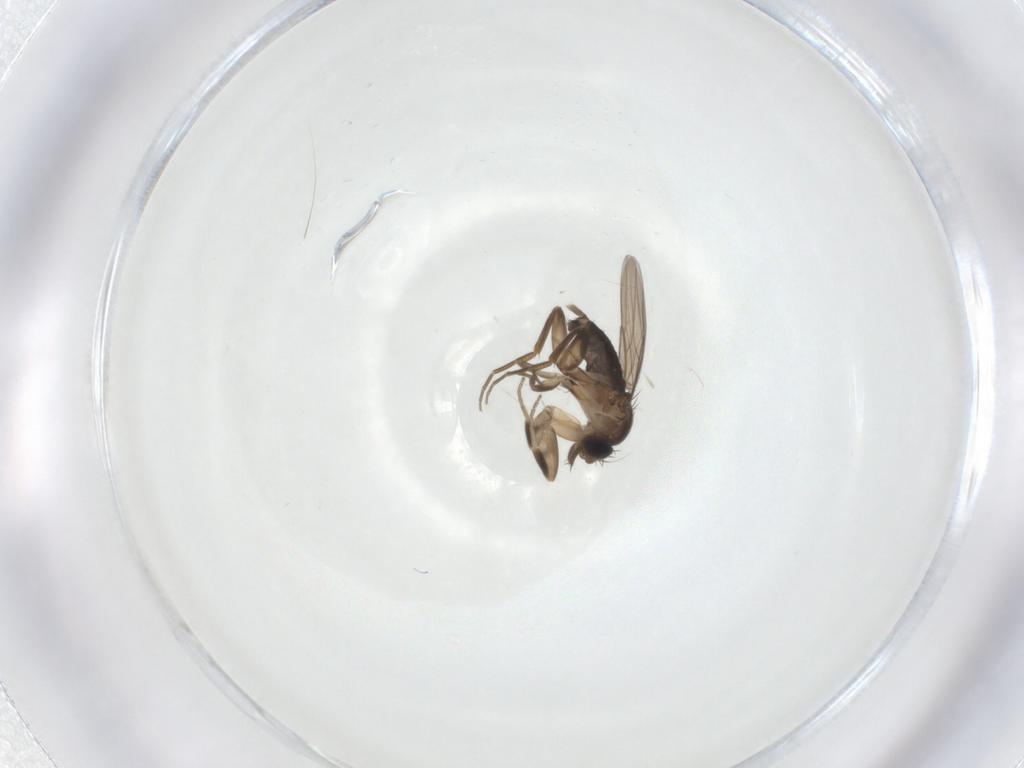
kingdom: Animalia
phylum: Arthropoda
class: Insecta
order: Diptera
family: Phoridae
